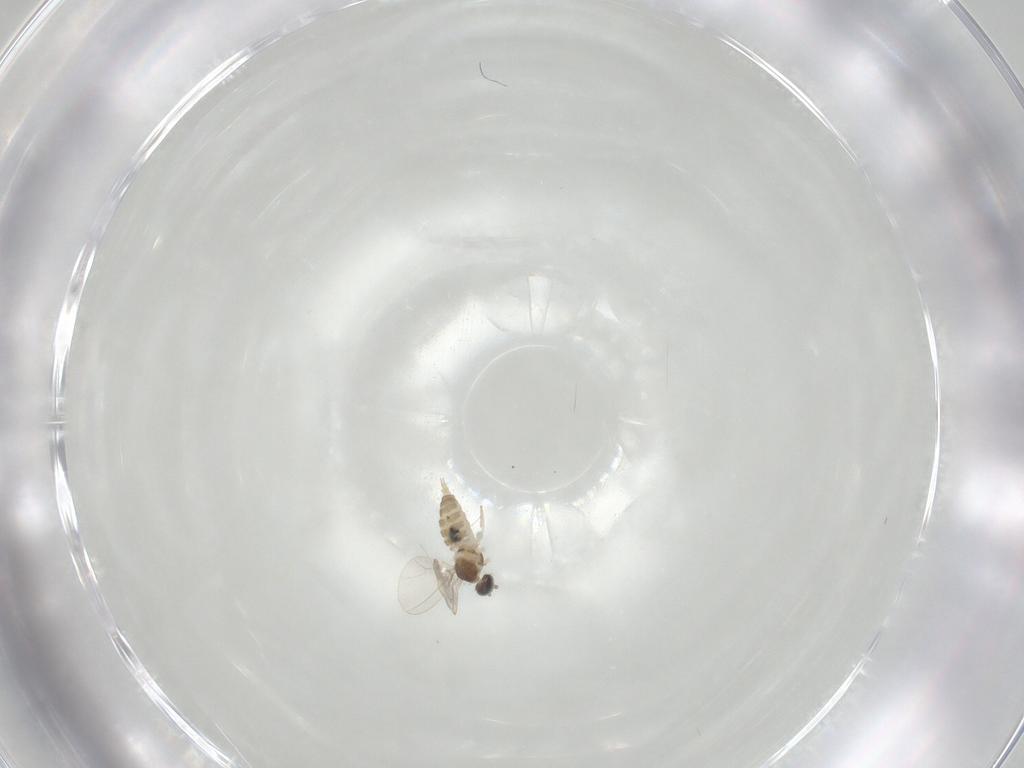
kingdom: Animalia
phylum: Arthropoda
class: Insecta
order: Diptera
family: Cecidomyiidae
